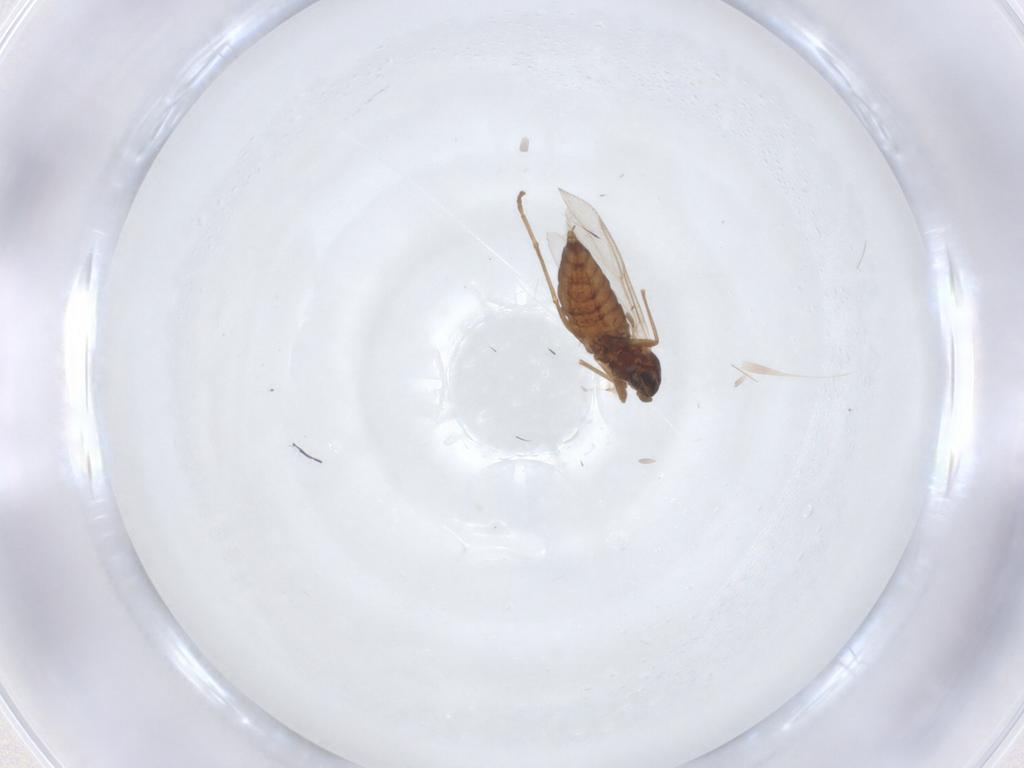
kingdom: Animalia
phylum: Arthropoda
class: Insecta
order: Diptera
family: Cecidomyiidae
